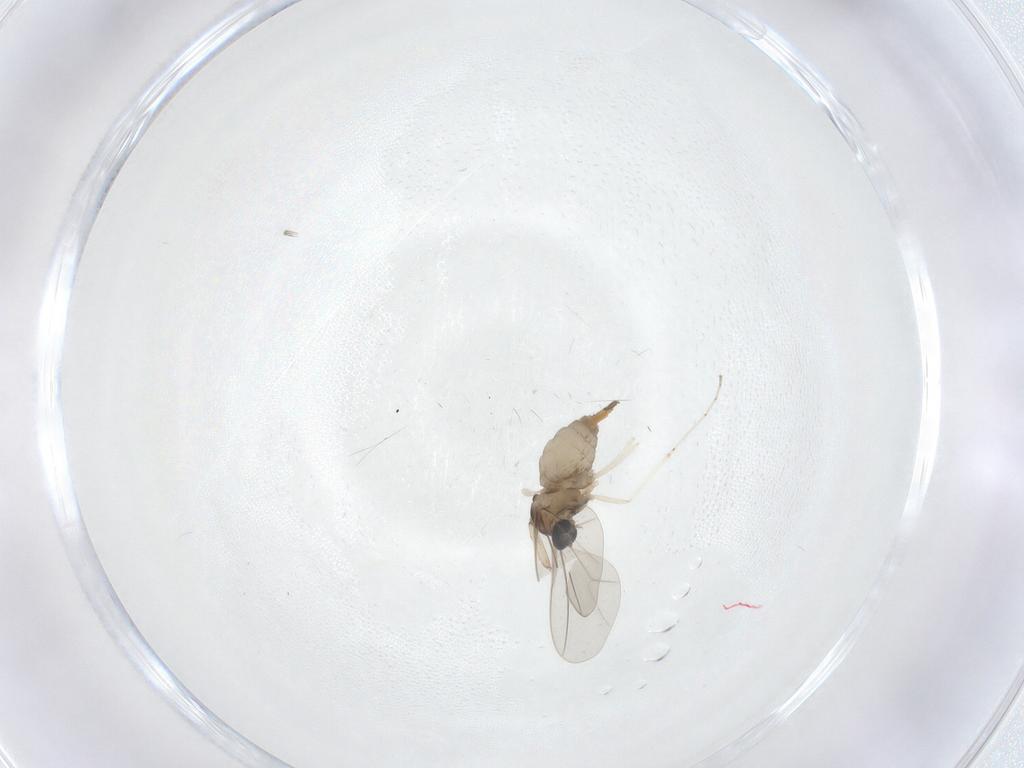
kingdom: Animalia
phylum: Arthropoda
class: Insecta
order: Diptera
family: Cecidomyiidae
